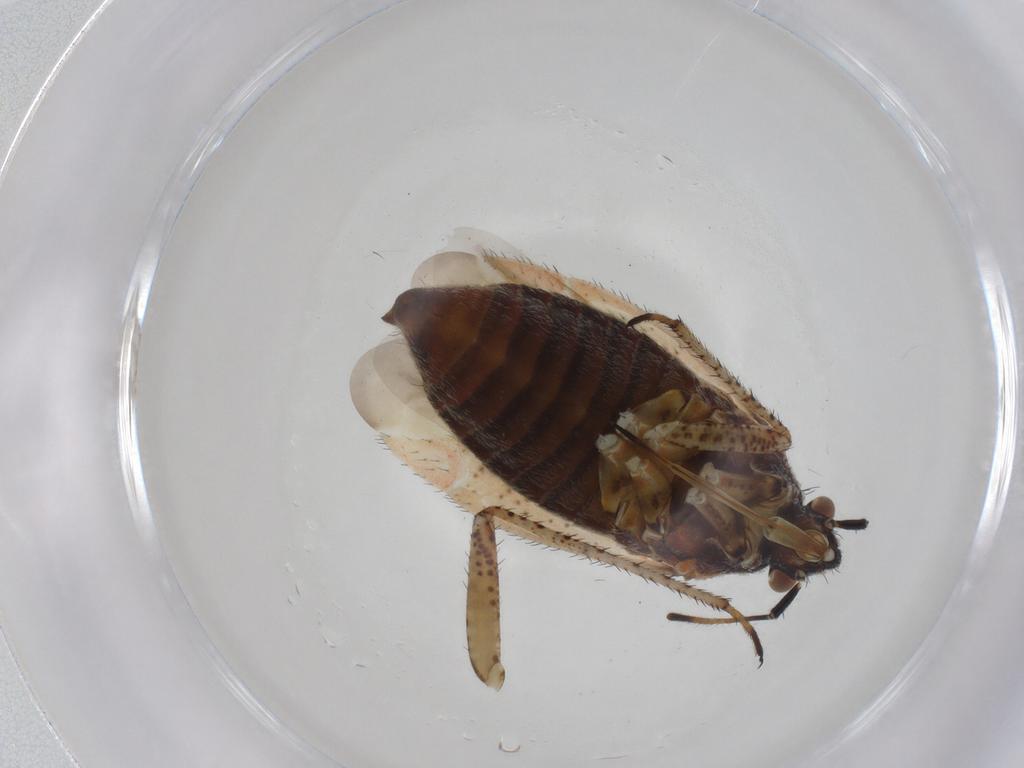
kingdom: Animalia
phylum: Arthropoda
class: Insecta
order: Hemiptera
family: Miridae
